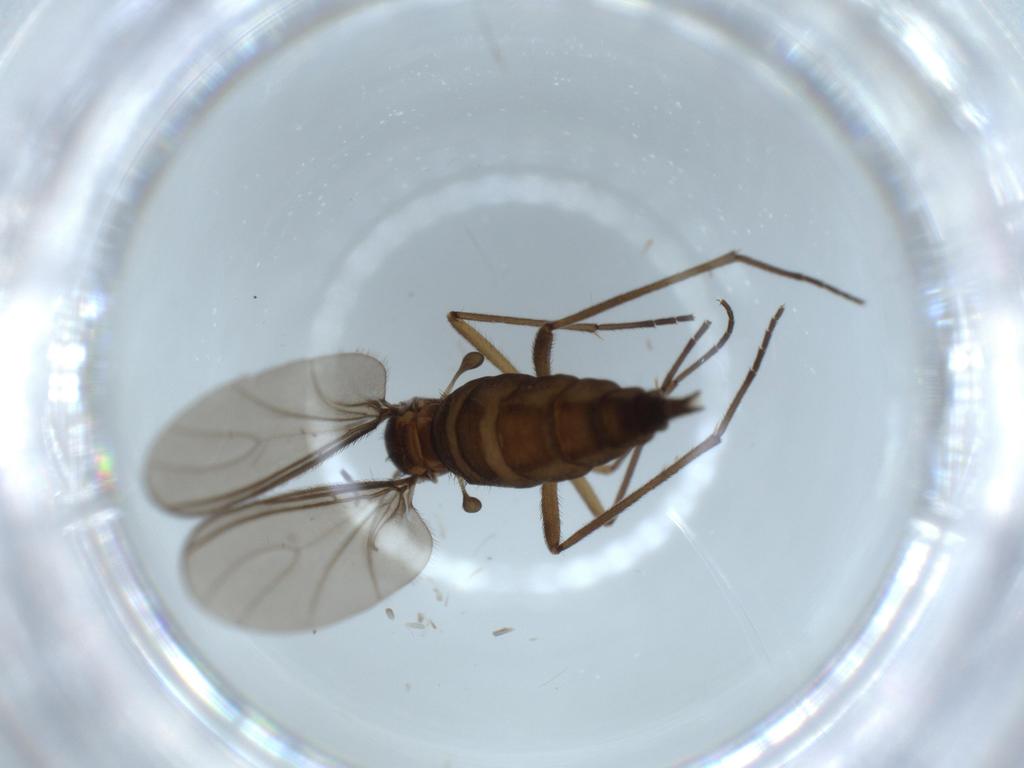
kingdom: Animalia
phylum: Arthropoda
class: Insecta
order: Diptera
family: Sciaridae
